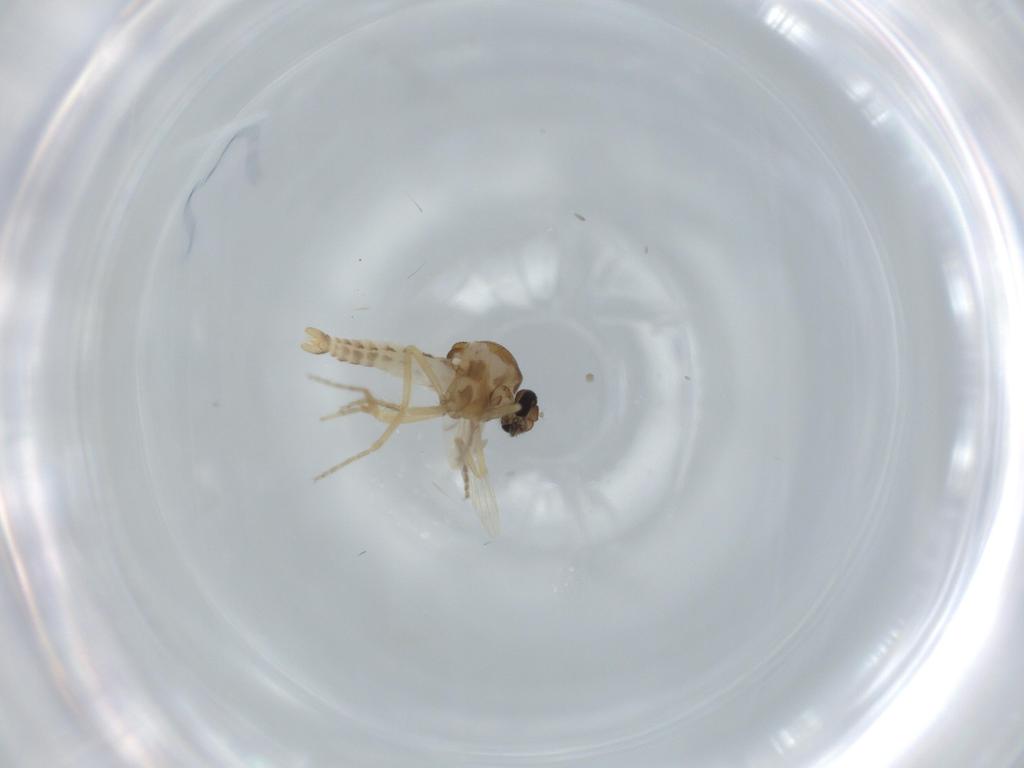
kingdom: Animalia
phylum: Arthropoda
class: Insecta
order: Diptera
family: Ceratopogonidae
